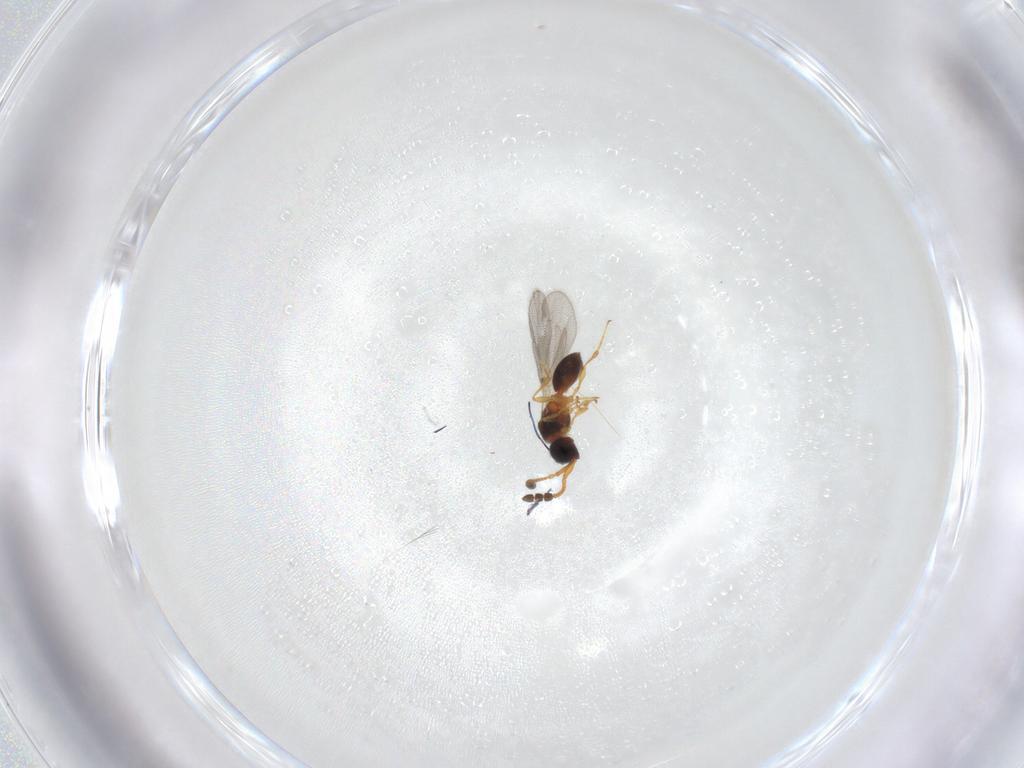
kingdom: Animalia
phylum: Arthropoda
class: Insecta
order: Hymenoptera
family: Diapriidae
